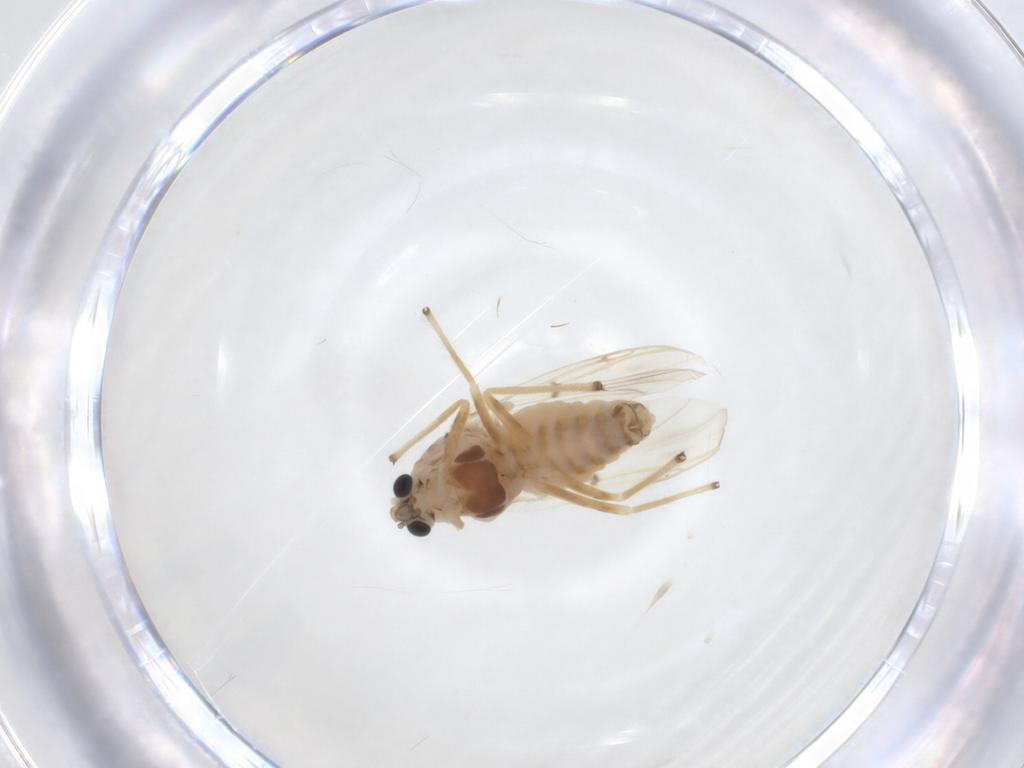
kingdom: Animalia
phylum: Arthropoda
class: Insecta
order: Diptera
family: Chironomidae
